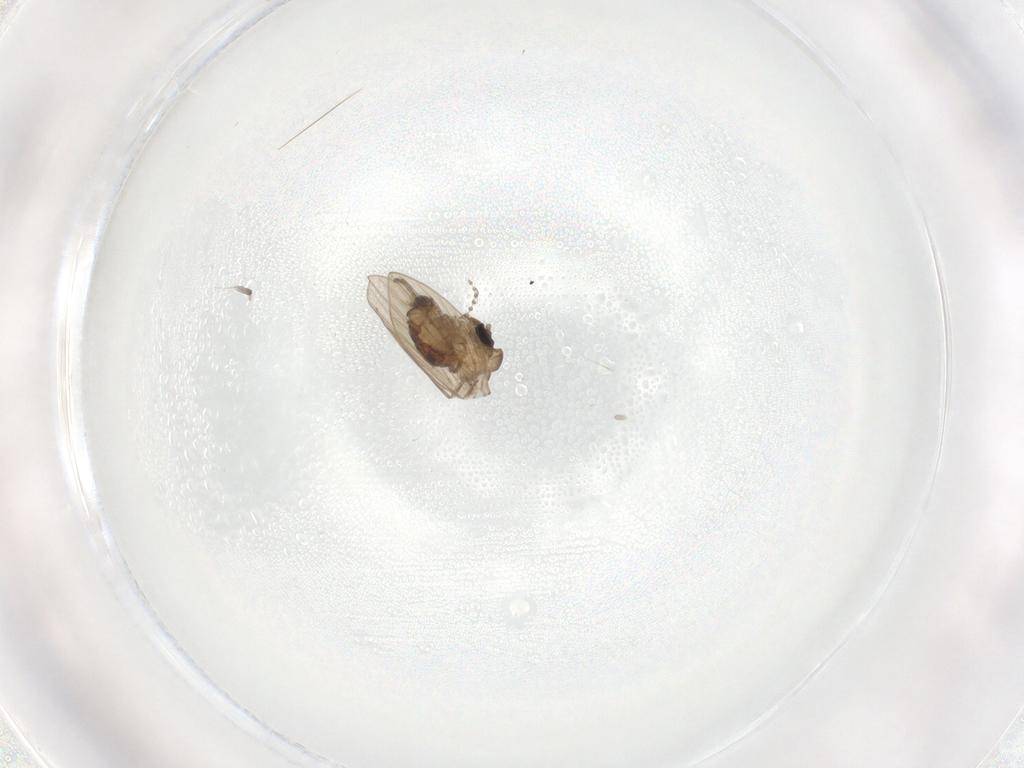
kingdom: Animalia
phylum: Arthropoda
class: Insecta
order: Diptera
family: Psychodidae
